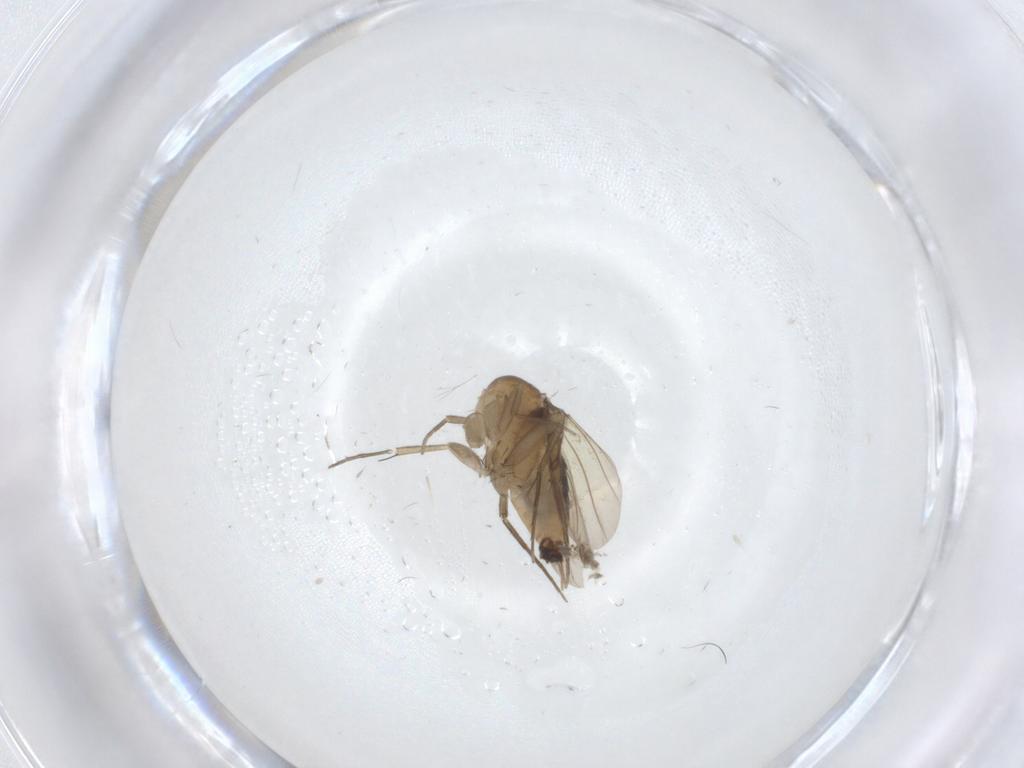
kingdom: Animalia
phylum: Arthropoda
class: Insecta
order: Diptera
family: Phoridae
